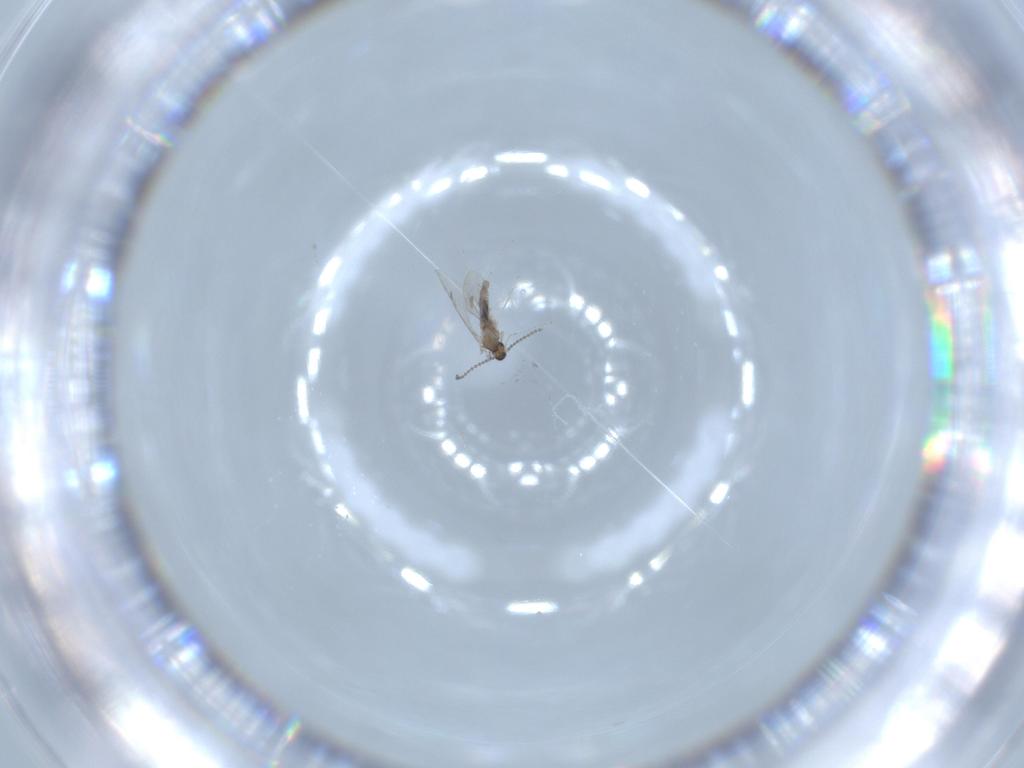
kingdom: Animalia
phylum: Arthropoda
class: Insecta
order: Diptera
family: Cecidomyiidae
